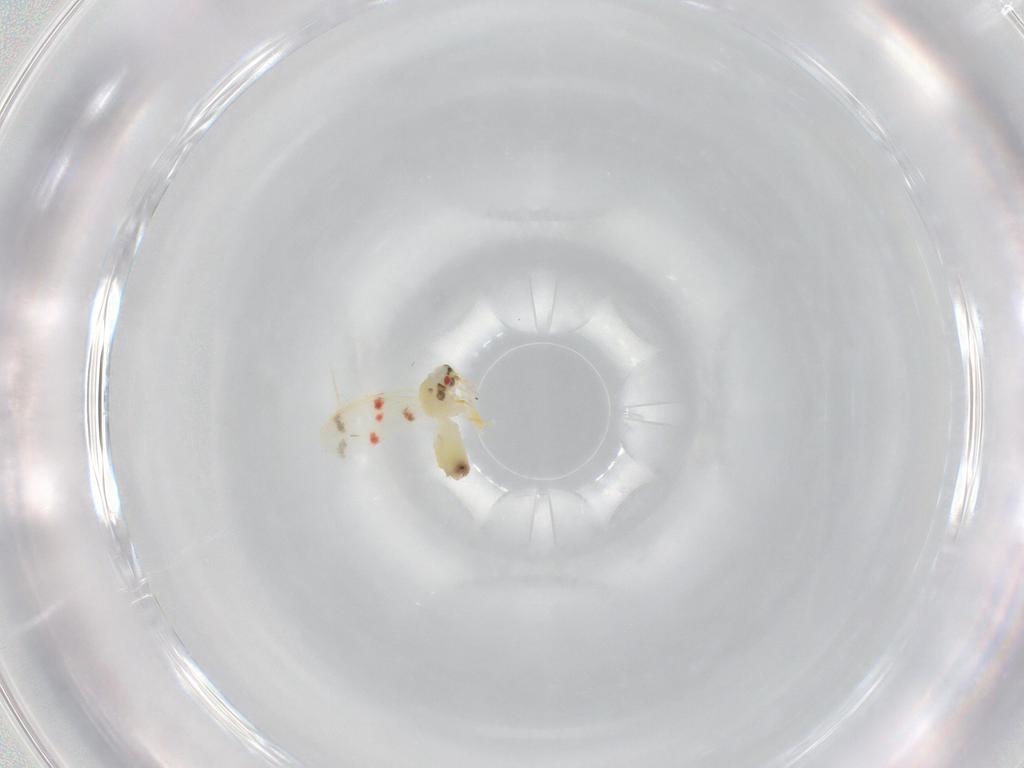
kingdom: Animalia
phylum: Arthropoda
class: Insecta
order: Hemiptera
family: Aleyrodidae
